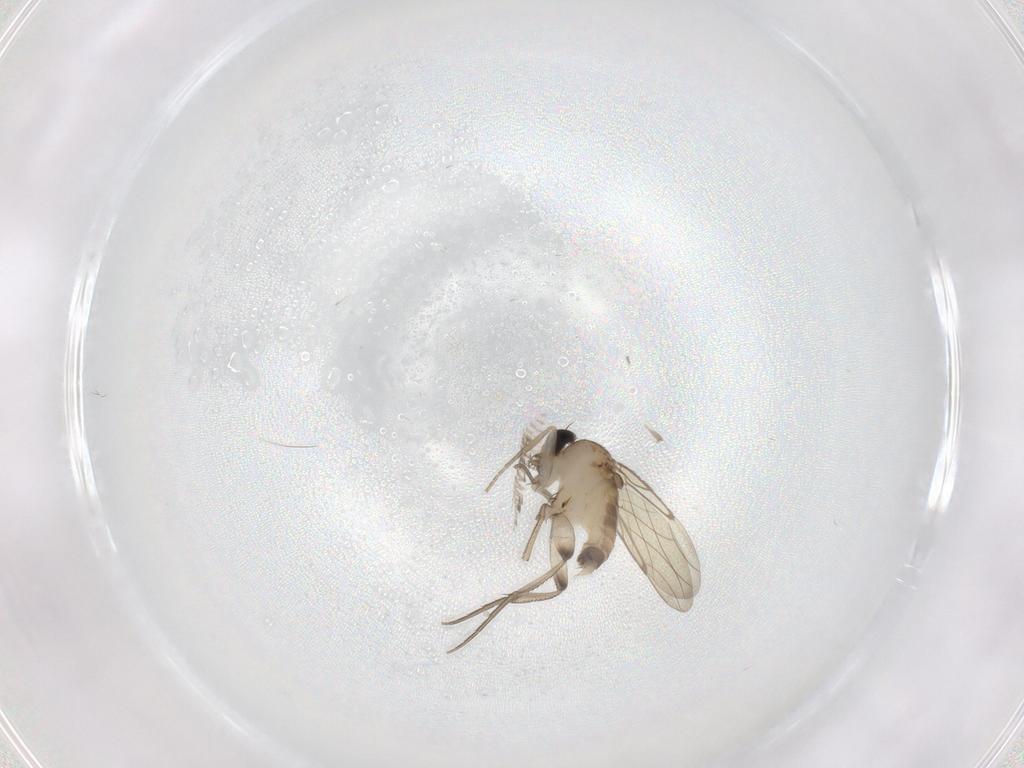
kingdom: Animalia
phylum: Arthropoda
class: Insecta
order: Diptera
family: Phoridae
